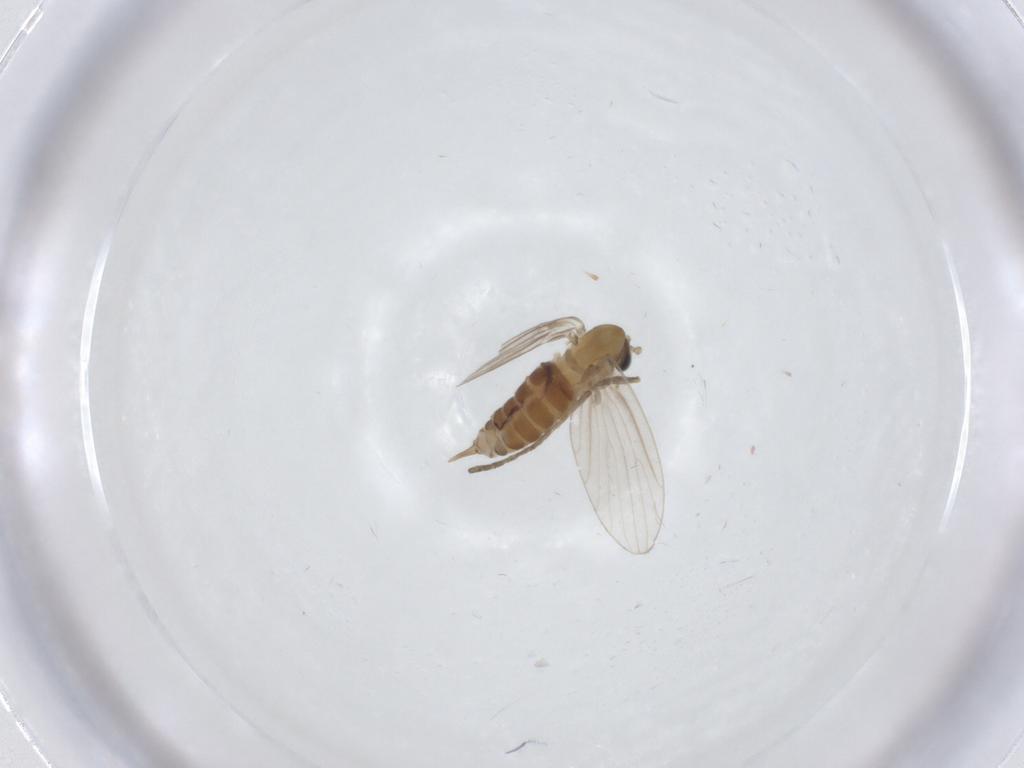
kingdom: Animalia
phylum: Arthropoda
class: Insecta
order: Diptera
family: Psychodidae
